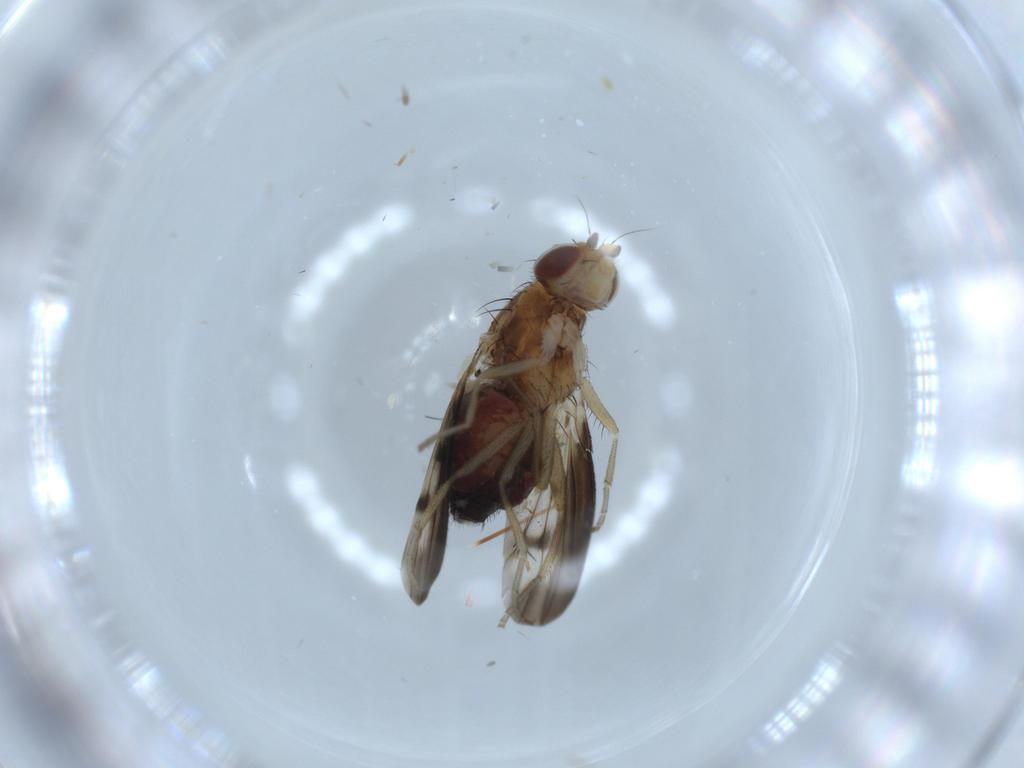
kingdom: Animalia
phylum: Arthropoda
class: Insecta
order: Diptera
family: Heleomyzidae
